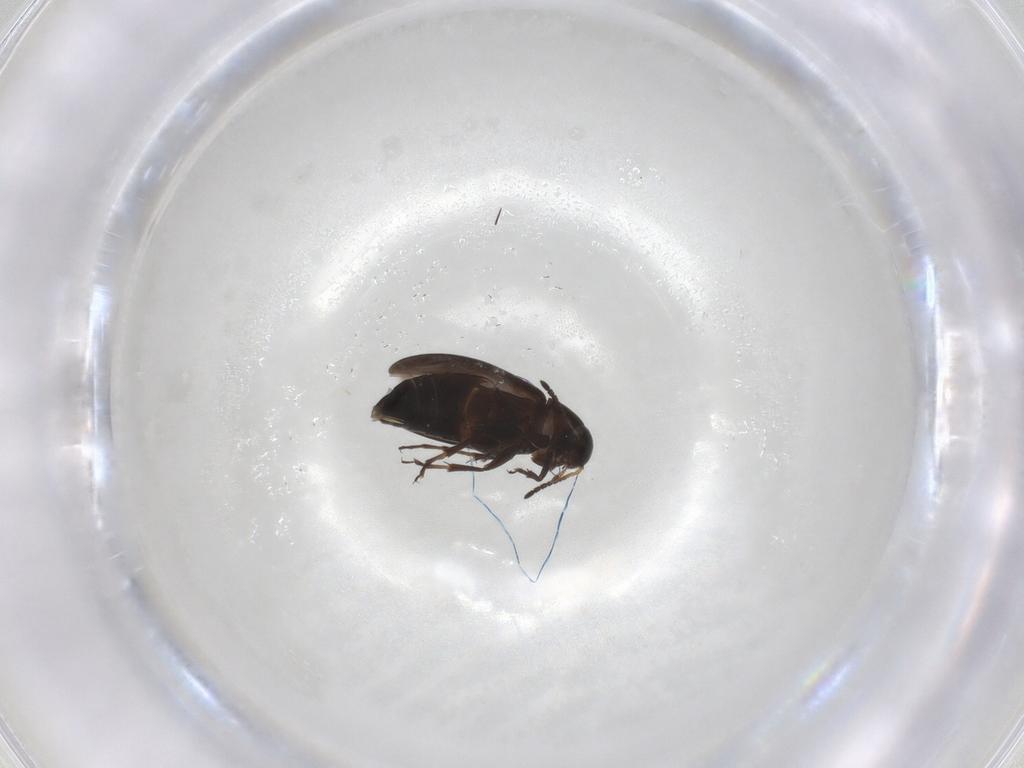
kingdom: Animalia
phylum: Arthropoda
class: Insecta
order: Coleoptera
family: Scraptiidae
